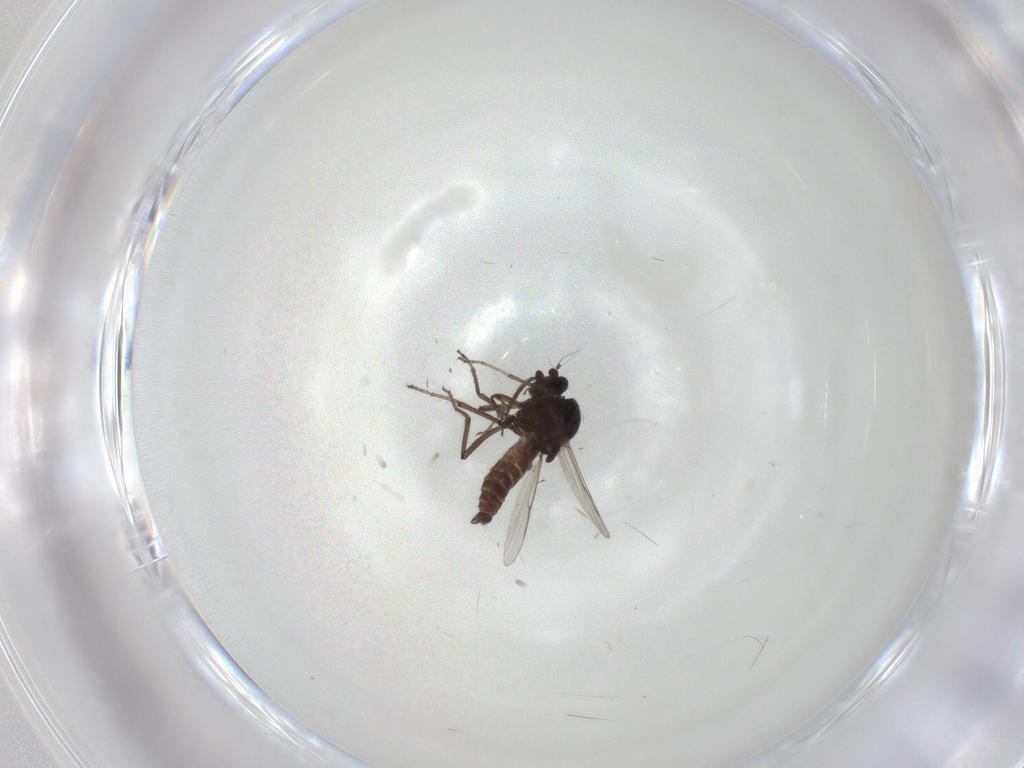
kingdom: Animalia
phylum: Arthropoda
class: Insecta
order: Diptera
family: Ceratopogonidae
